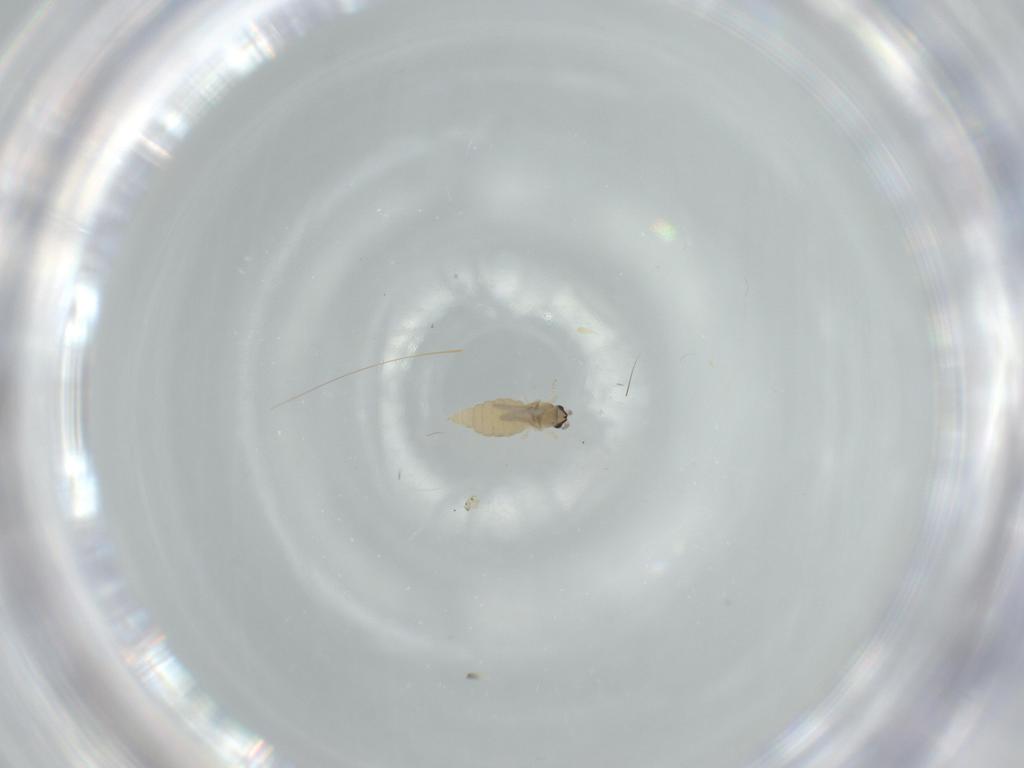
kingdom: Animalia
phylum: Arthropoda
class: Insecta
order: Diptera
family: Cecidomyiidae
